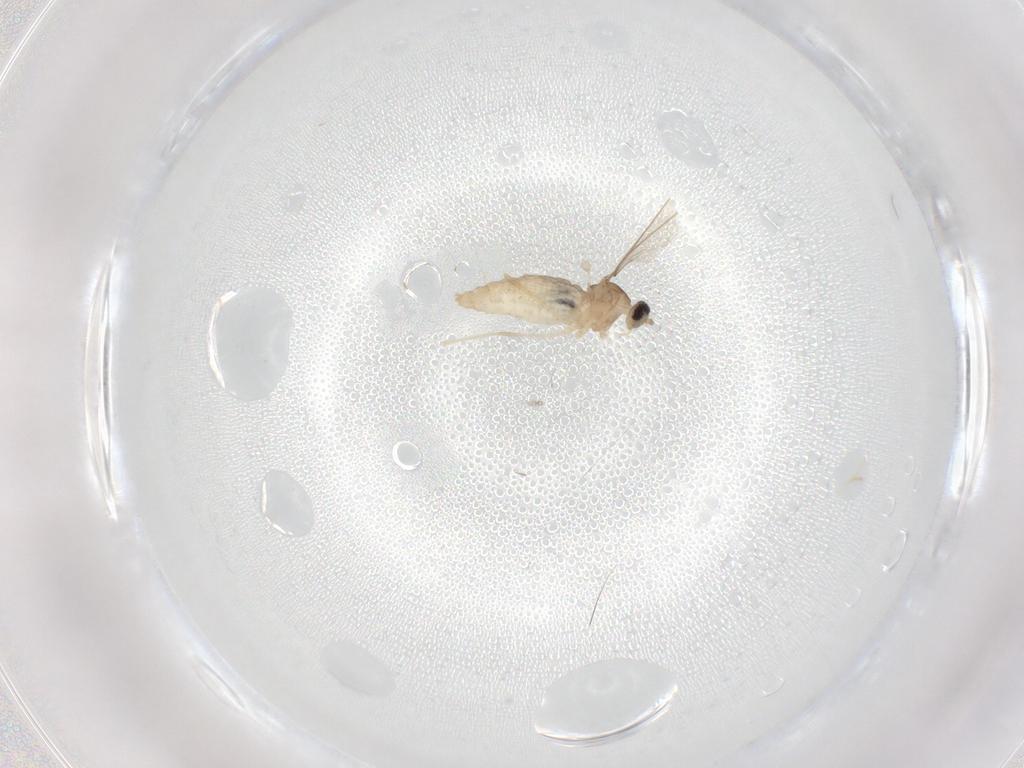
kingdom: Animalia
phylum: Arthropoda
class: Insecta
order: Diptera
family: Cecidomyiidae
